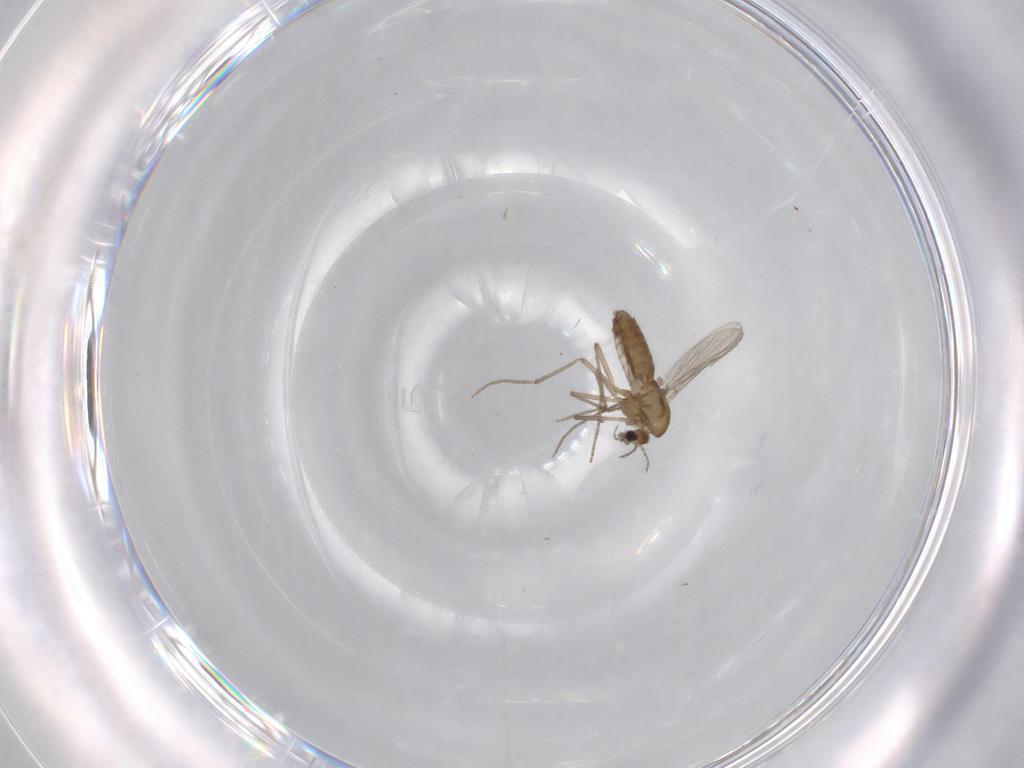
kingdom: Animalia
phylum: Arthropoda
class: Insecta
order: Diptera
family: Chironomidae
